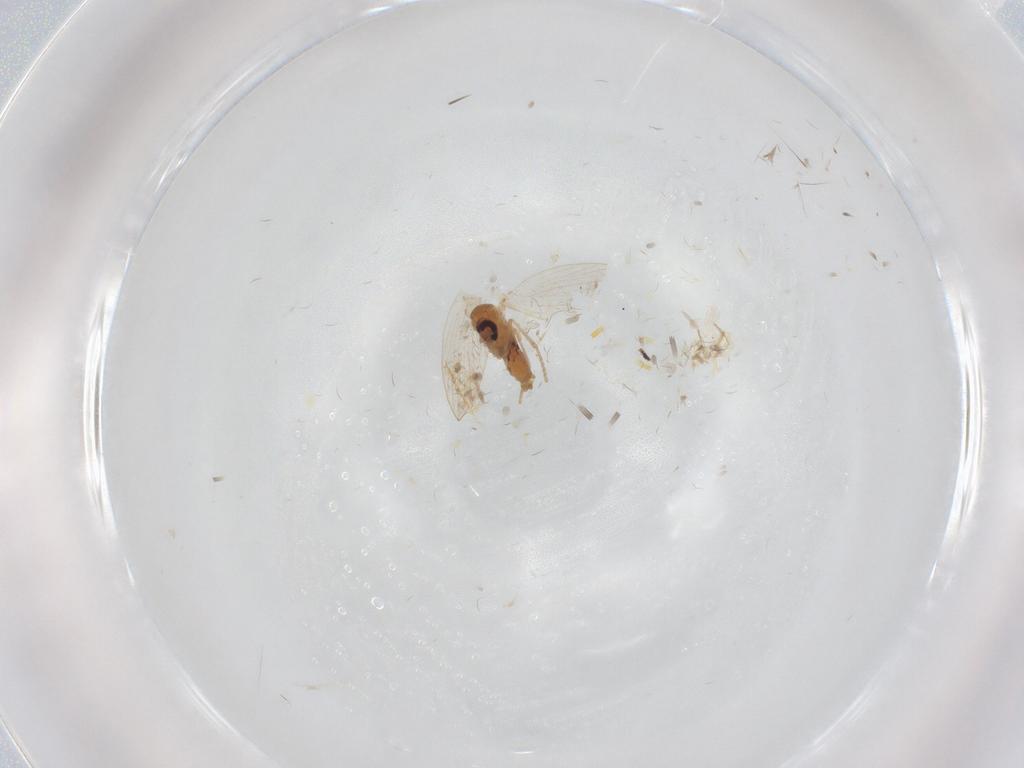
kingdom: Animalia
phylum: Arthropoda
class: Insecta
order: Diptera
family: Psychodidae
